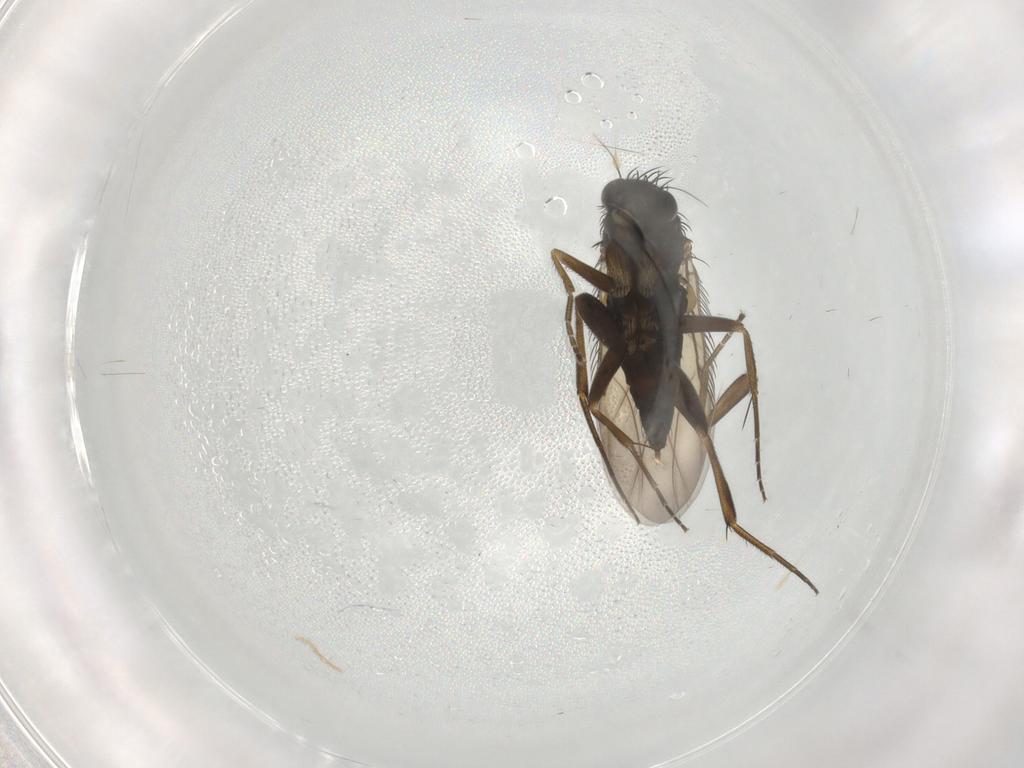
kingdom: Animalia
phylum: Arthropoda
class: Insecta
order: Diptera
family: Phoridae
